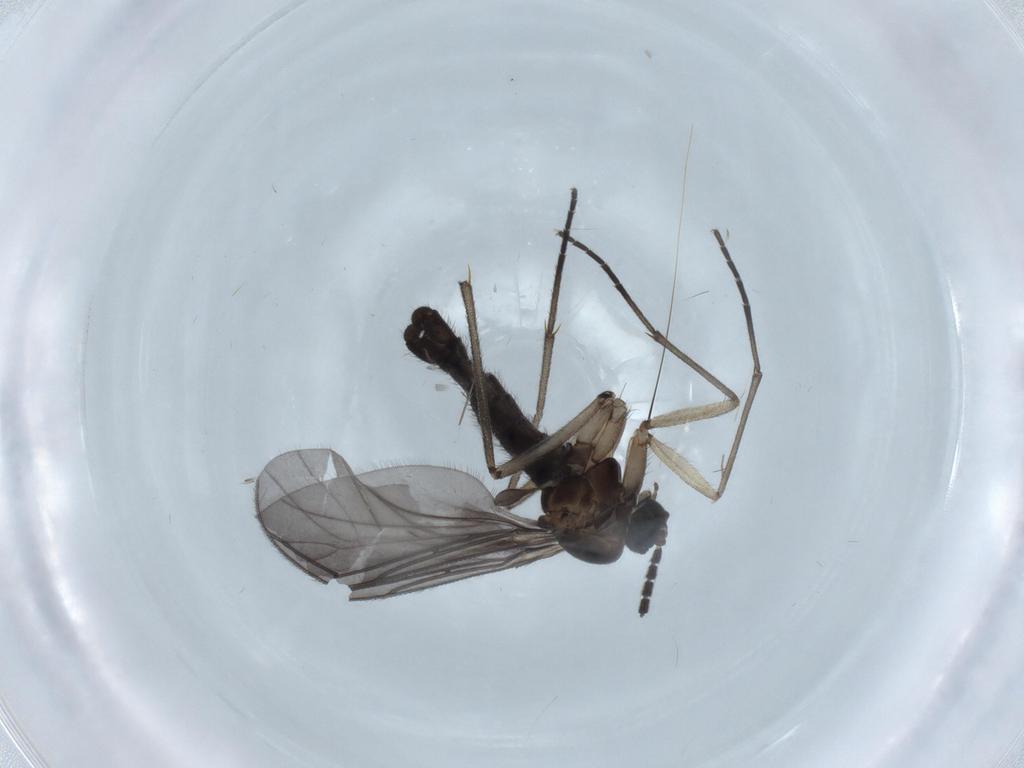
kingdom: Animalia
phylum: Arthropoda
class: Insecta
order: Diptera
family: Sciaridae
